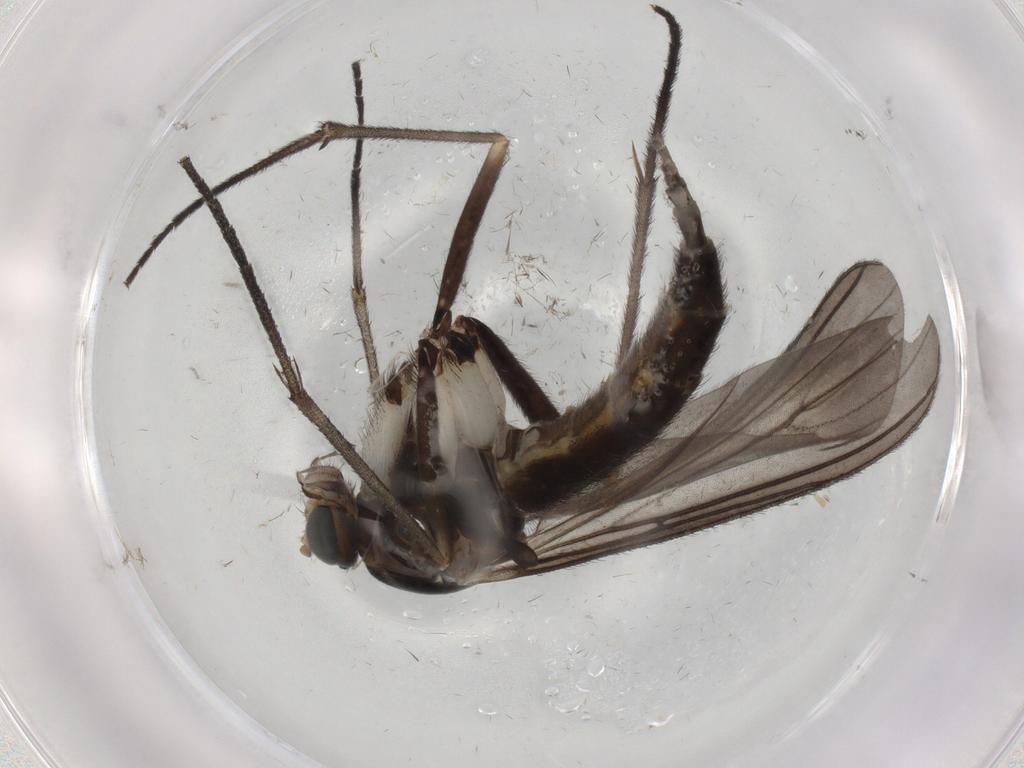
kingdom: Animalia
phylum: Arthropoda
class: Insecta
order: Diptera
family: Sciaridae
